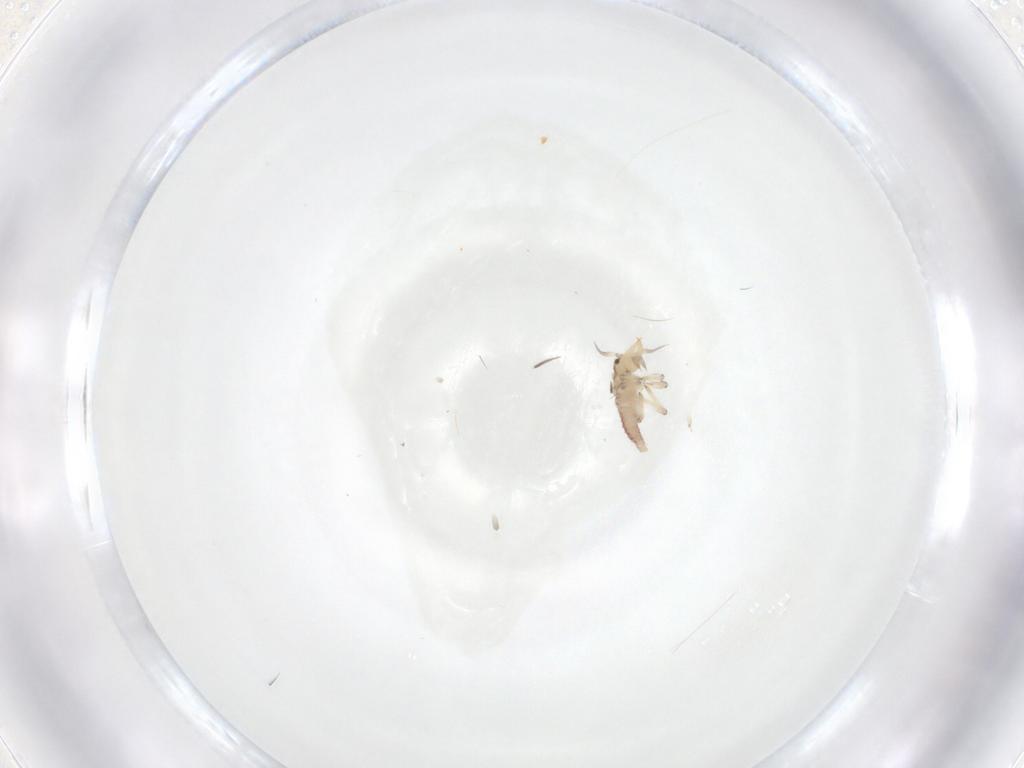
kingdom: Animalia
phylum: Arthropoda
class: Insecta
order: Neuroptera
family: Hemerobiidae
